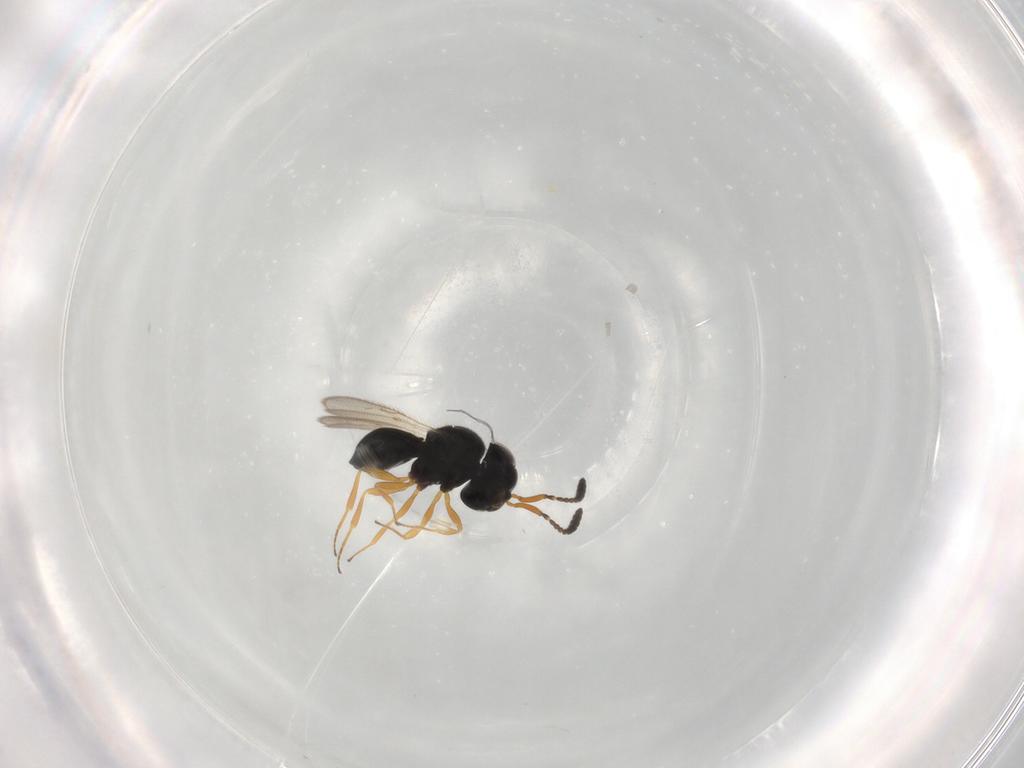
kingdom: Animalia
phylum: Arthropoda
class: Insecta
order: Hymenoptera
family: Scelionidae
